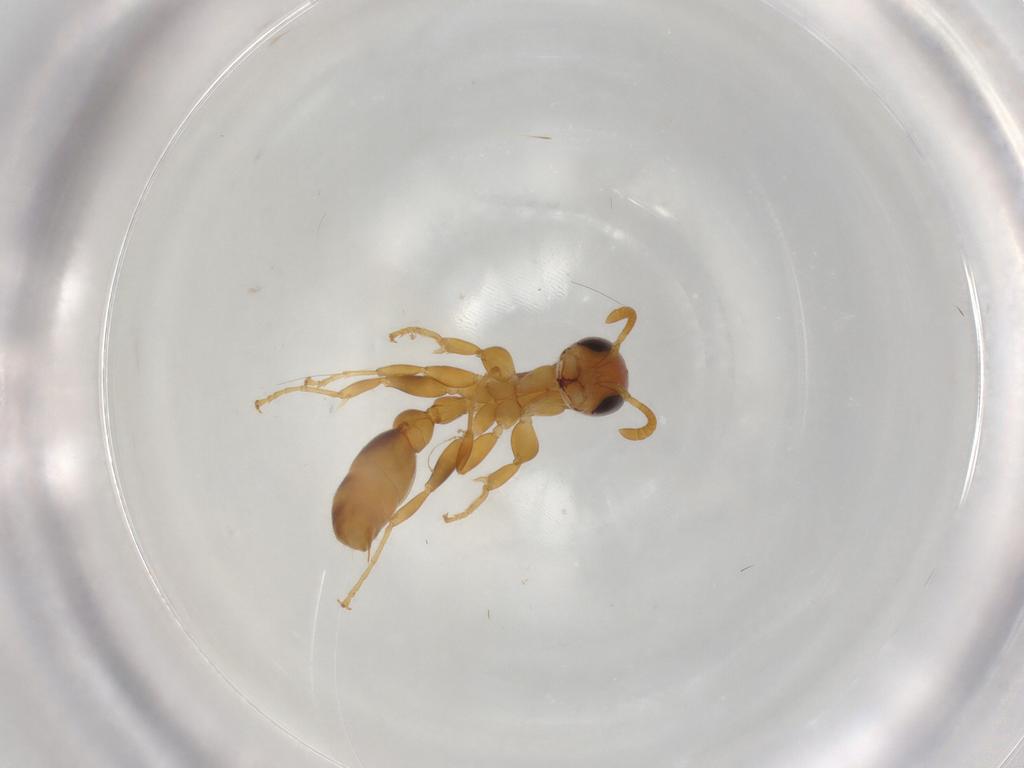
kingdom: Animalia
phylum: Arthropoda
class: Insecta
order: Hymenoptera
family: Formicidae
